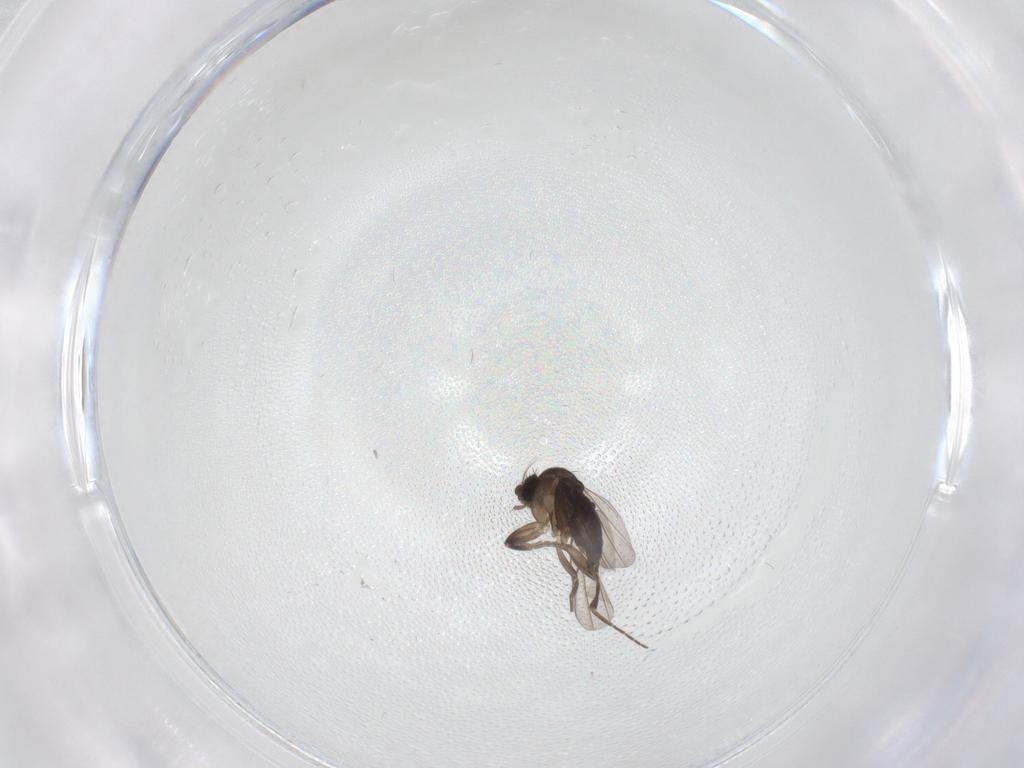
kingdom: Animalia
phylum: Arthropoda
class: Insecta
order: Diptera
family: Phoridae
